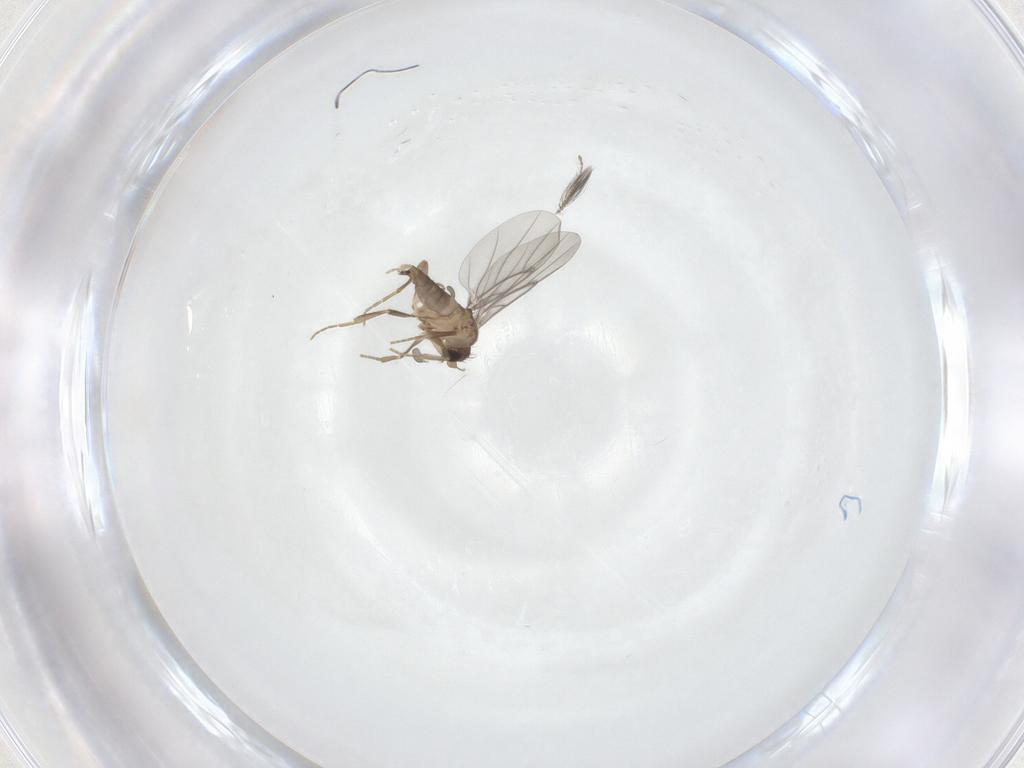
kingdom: Animalia
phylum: Arthropoda
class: Insecta
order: Diptera
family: Ceratopogonidae
